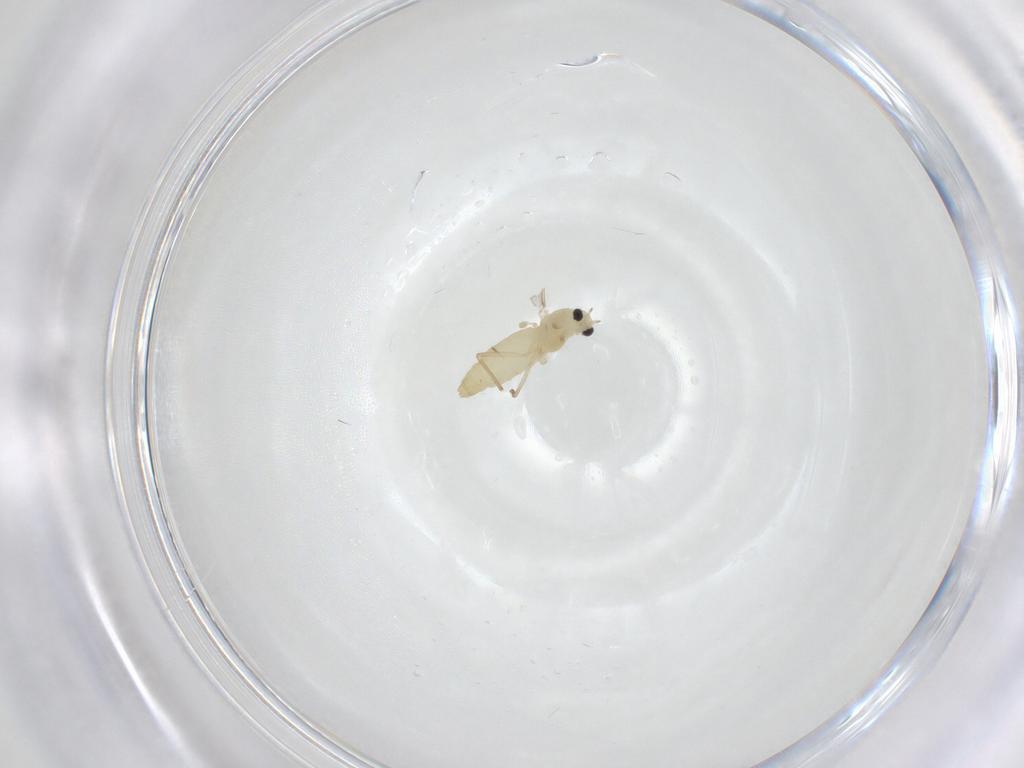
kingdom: Animalia
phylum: Arthropoda
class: Insecta
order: Diptera
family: Chironomidae
